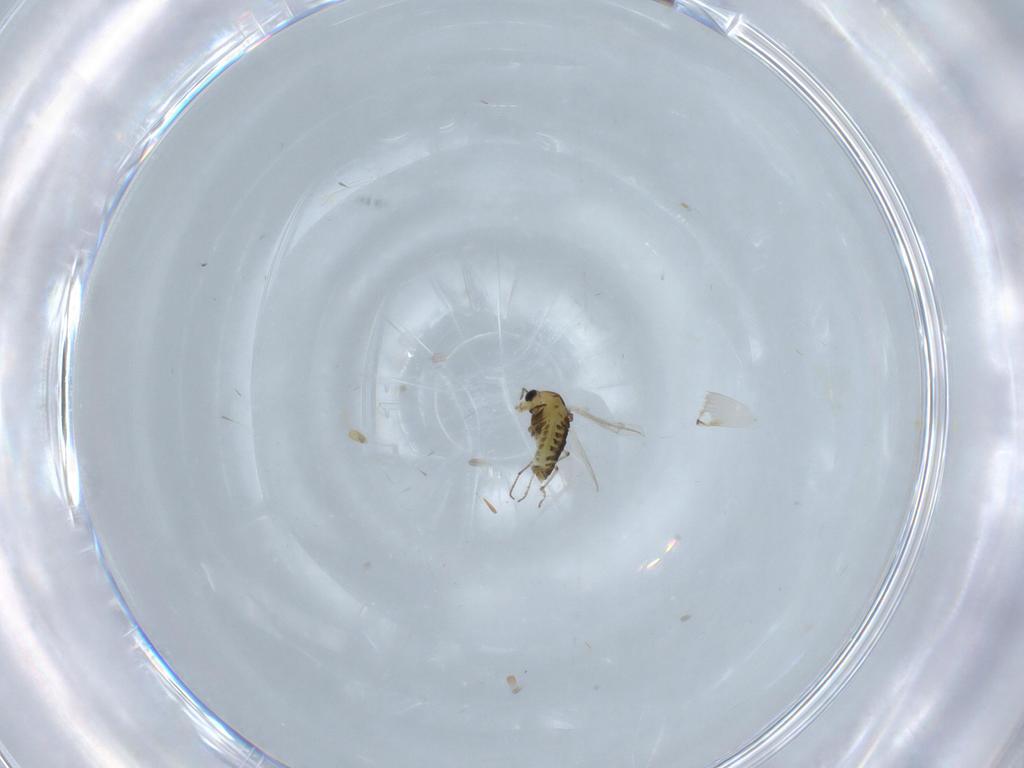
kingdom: Animalia
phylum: Arthropoda
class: Insecta
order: Diptera
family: Chironomidae
